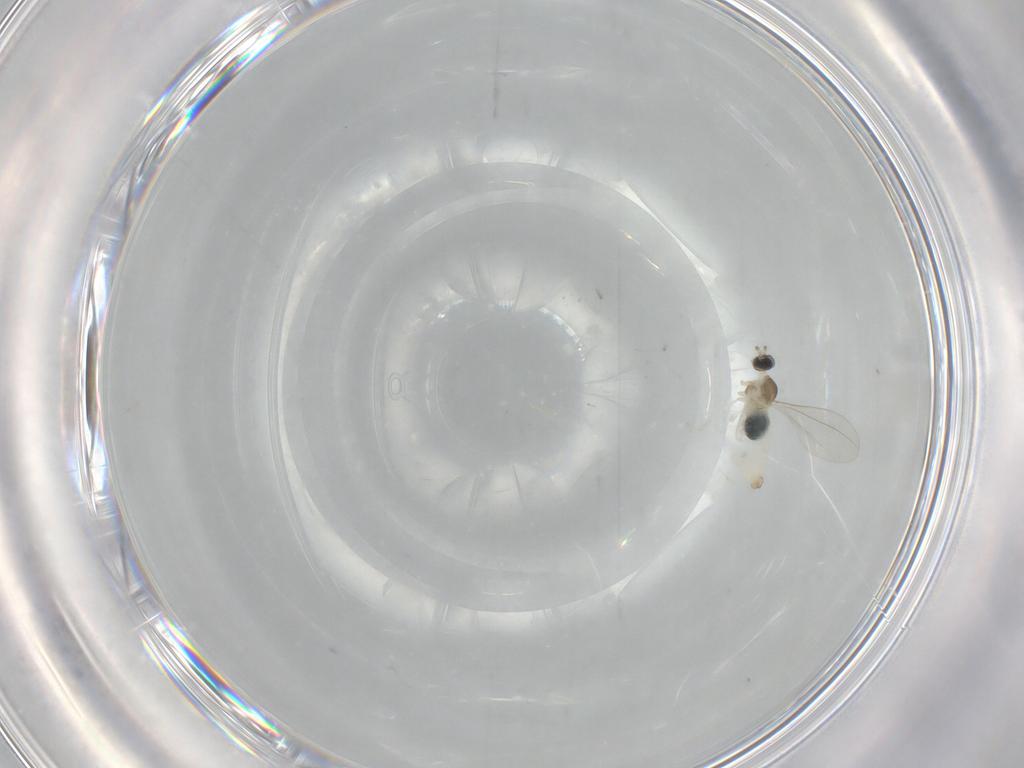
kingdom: Animalia
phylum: Arthropoda
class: Insecta
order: Diptera
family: Cecidomyiidae
